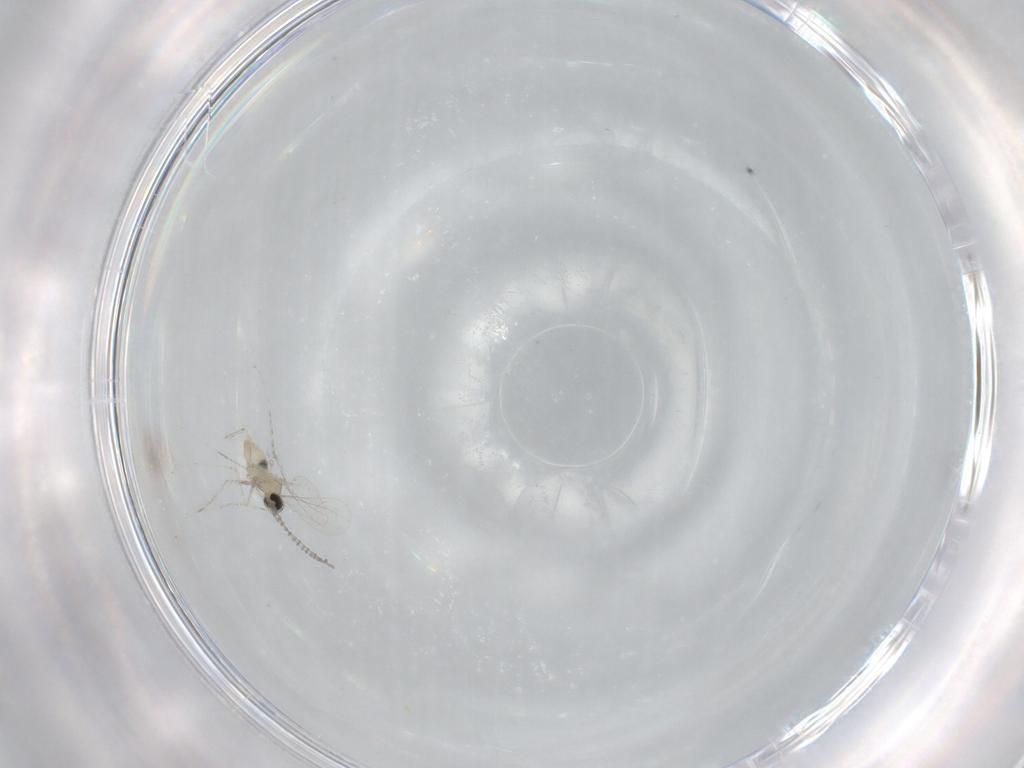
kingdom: Animalia
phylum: Arthropoda
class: Insecta
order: Diptera
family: Cecidomyiidae
